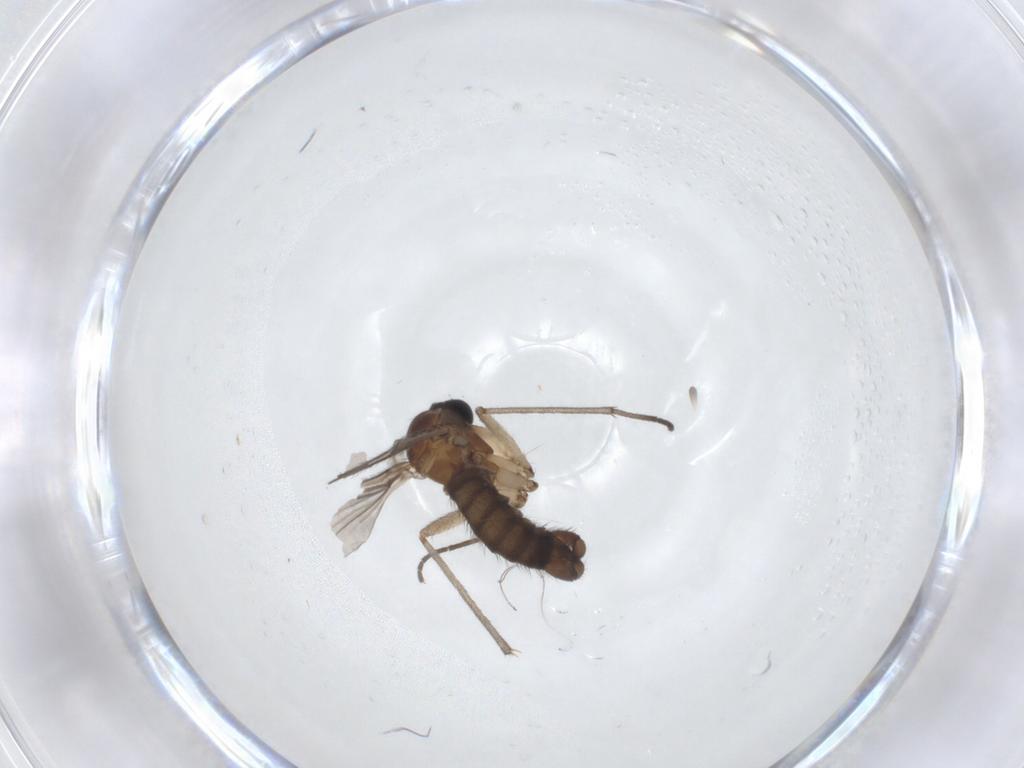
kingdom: Animalia
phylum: Arthropoda
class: Insecta
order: Diptera
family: Sciaridae
